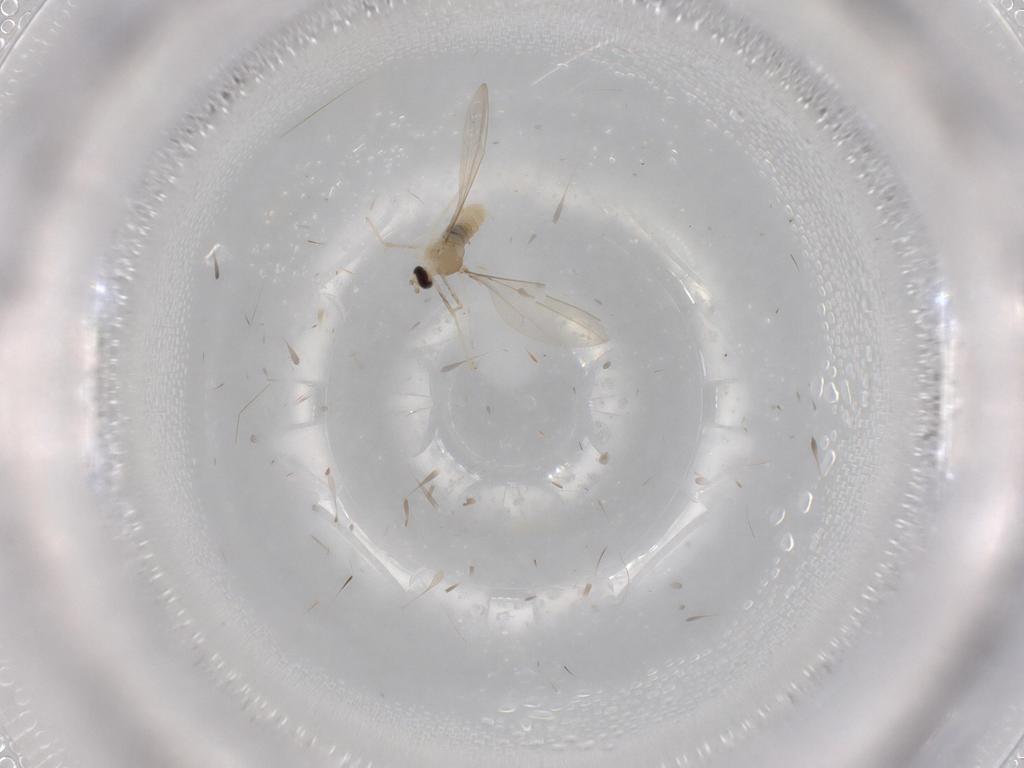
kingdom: Animalia
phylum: Arthropoda
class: Insecta
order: Diptera
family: Cecidomyiidae
